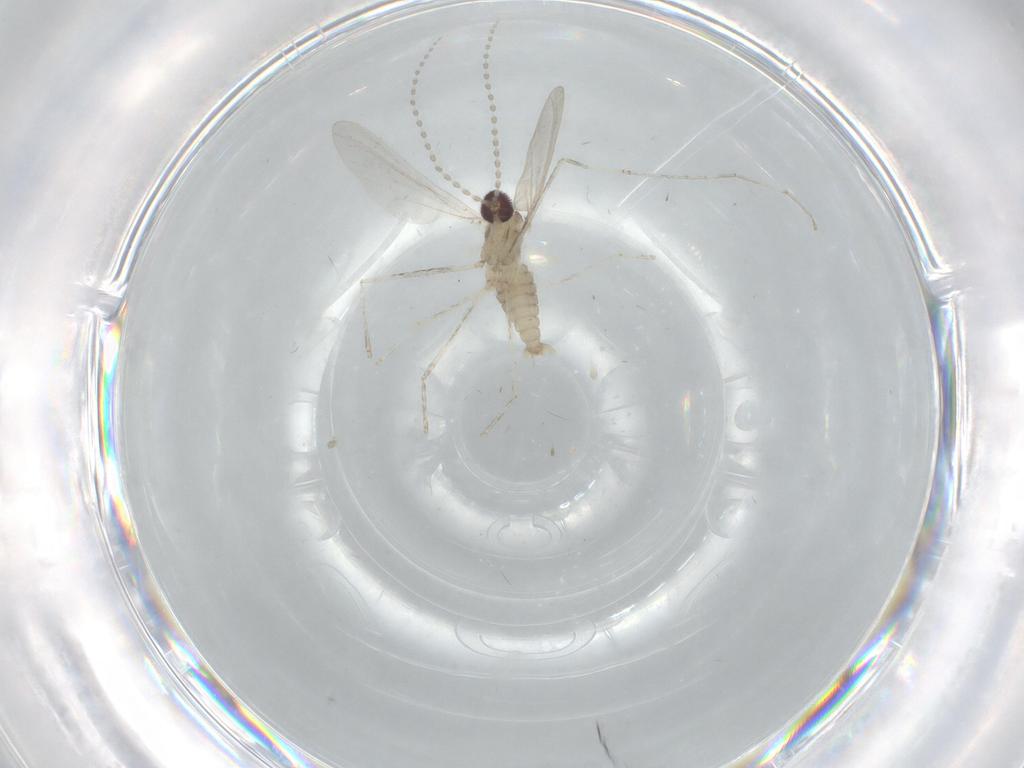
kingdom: Animalia
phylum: Arthropoda
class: Insecta
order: Diptera
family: Cecidomyiidae
